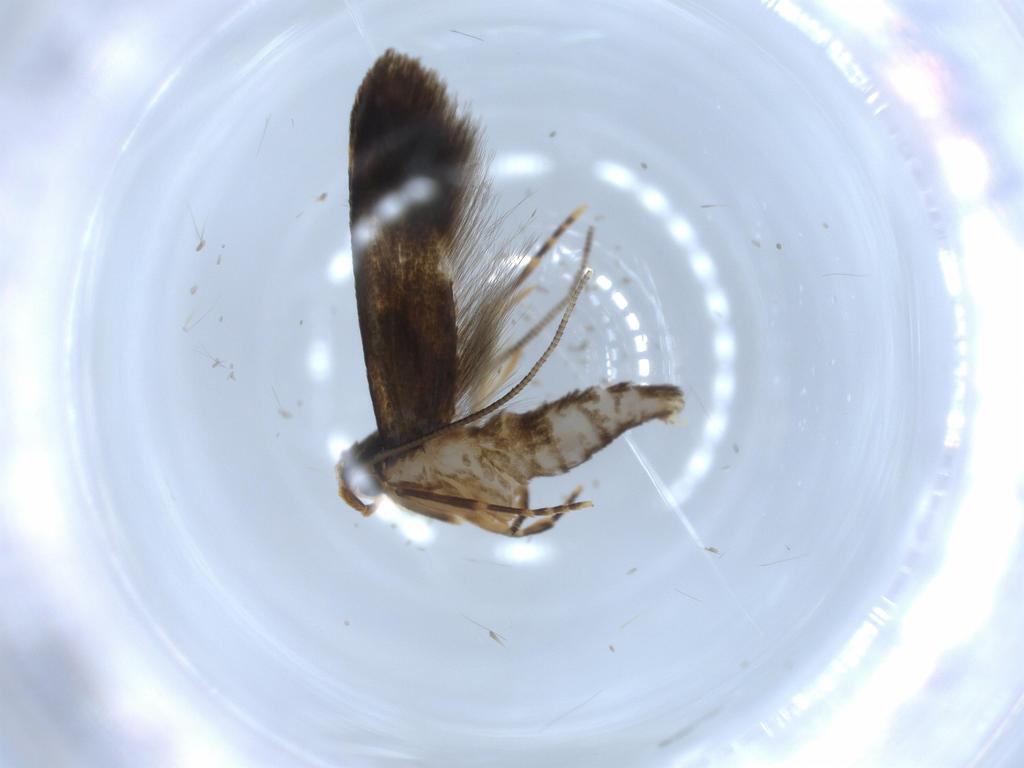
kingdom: Animalia
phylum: Arthropoda
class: Insecta
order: Lepidoptera
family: Tineidae
